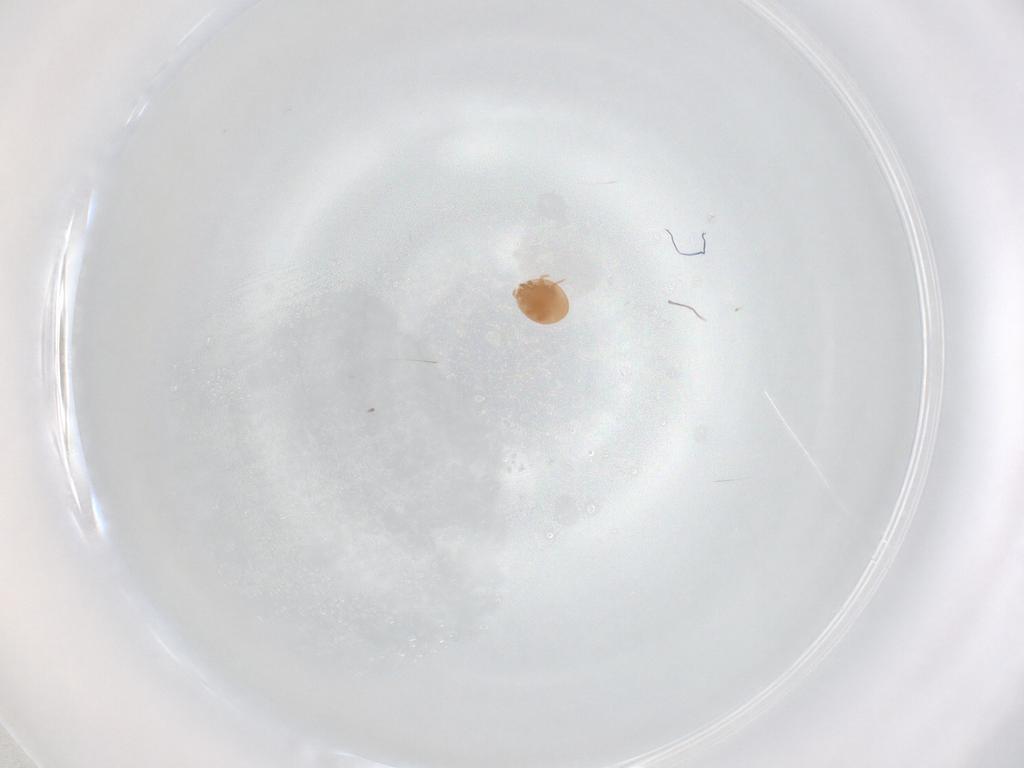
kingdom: Animalia
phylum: Arthropoda
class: Arachnida
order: Mesostigmata
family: Trematuridae
